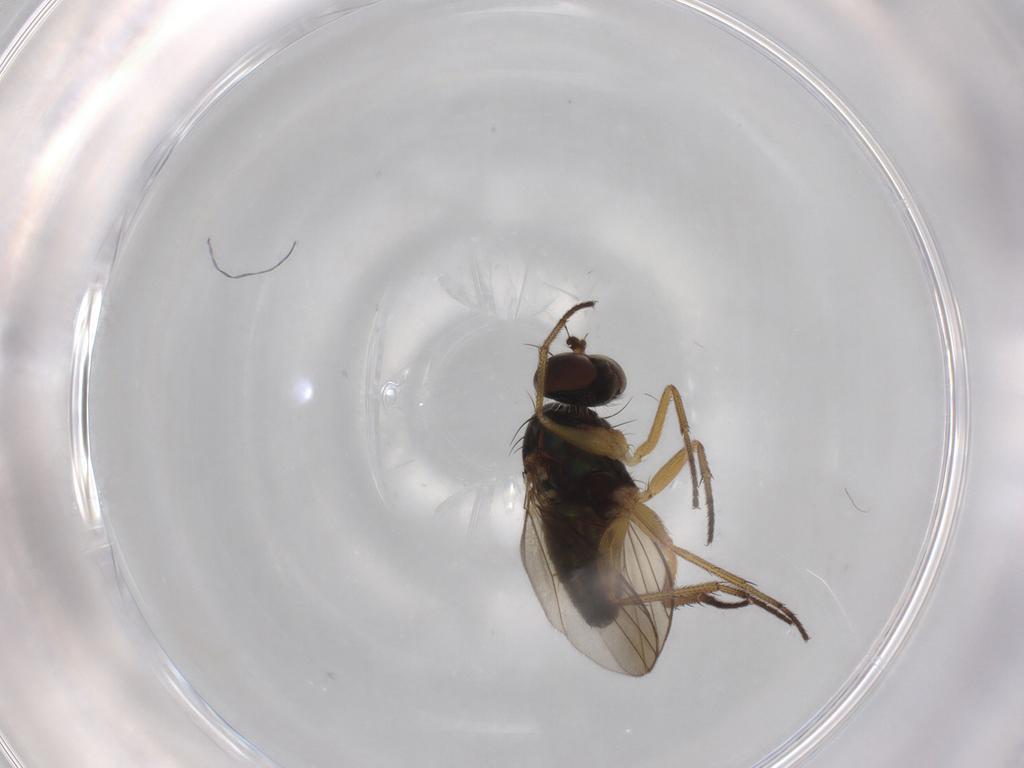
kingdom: Animalia
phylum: Arthropoda
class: Insecta
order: Diptera
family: Dolichopodidae
